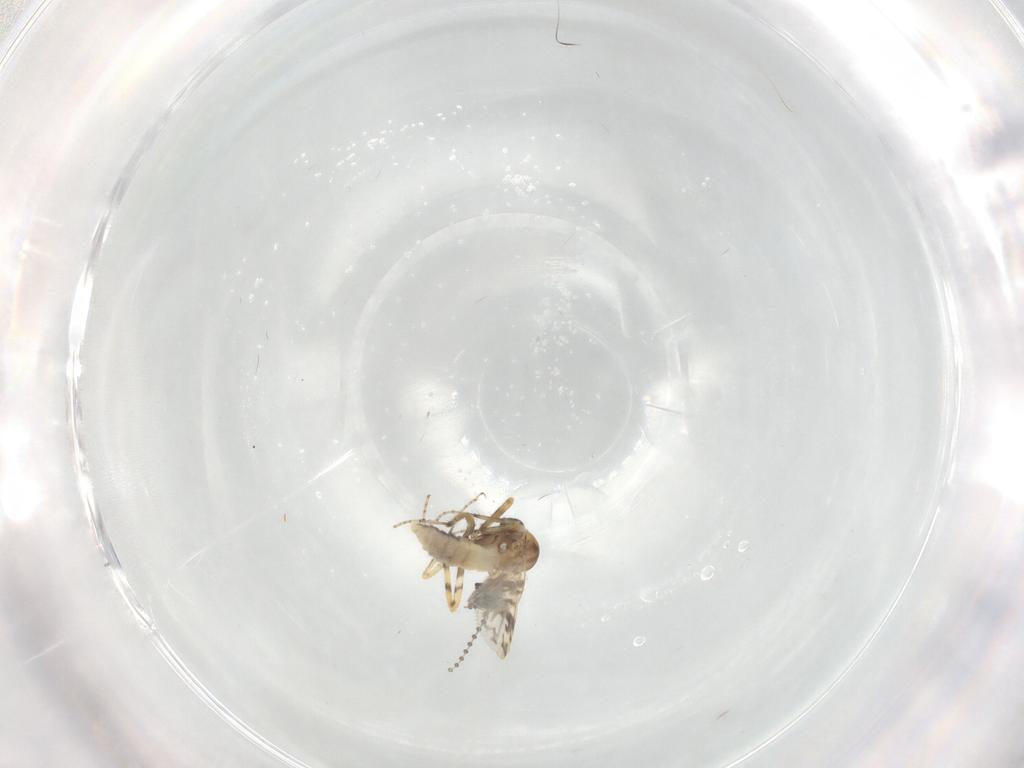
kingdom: Animalia
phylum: Arthropoda
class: Insecta
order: Diptera
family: Ceratopogonidae
